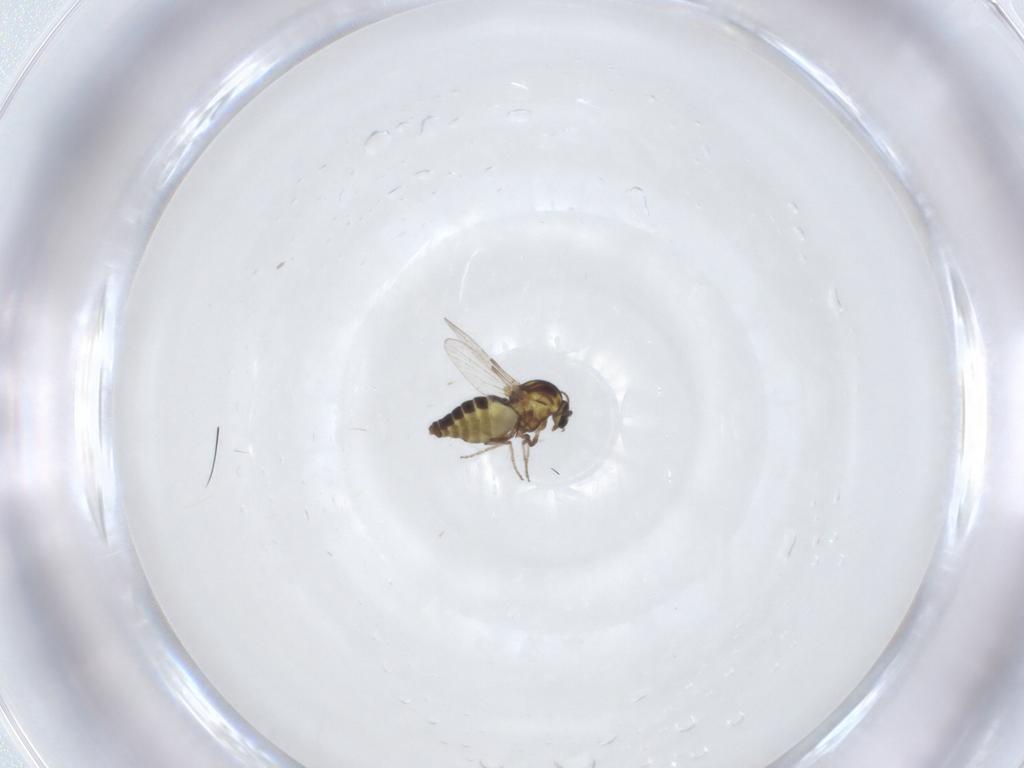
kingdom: Animalia
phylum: Arthropoda
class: Insecta
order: Diptera
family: Ceratopogonidae
